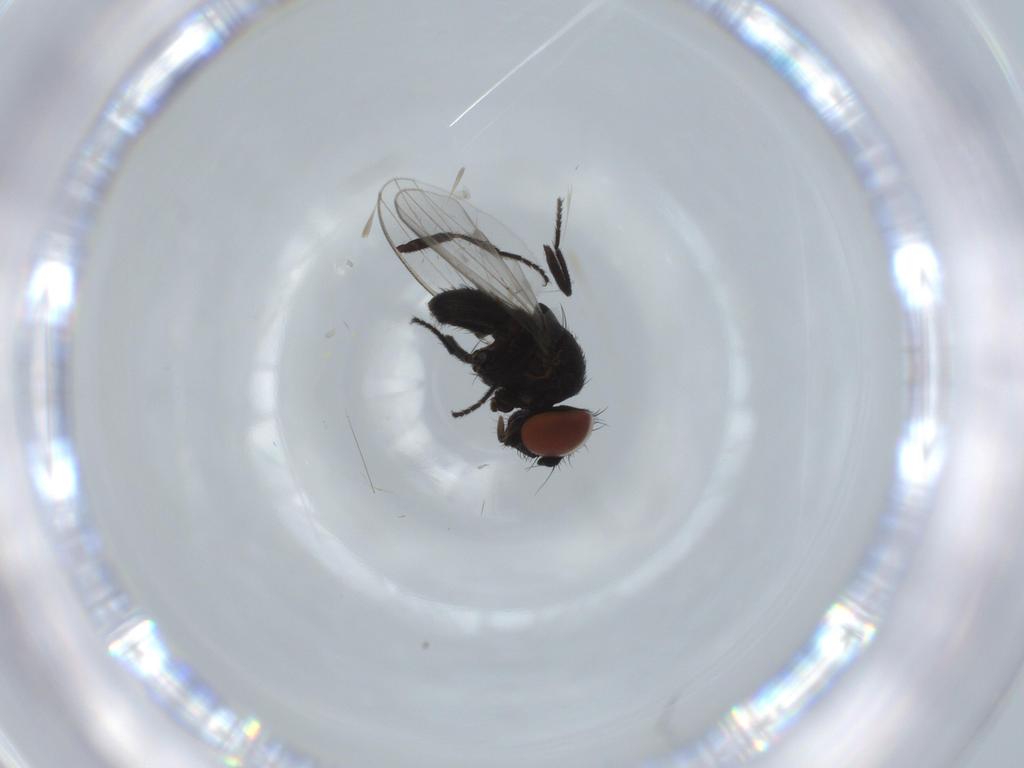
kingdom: Animalia
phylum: Arthropoda
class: Insecta
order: Diptera
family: Milichiidae
